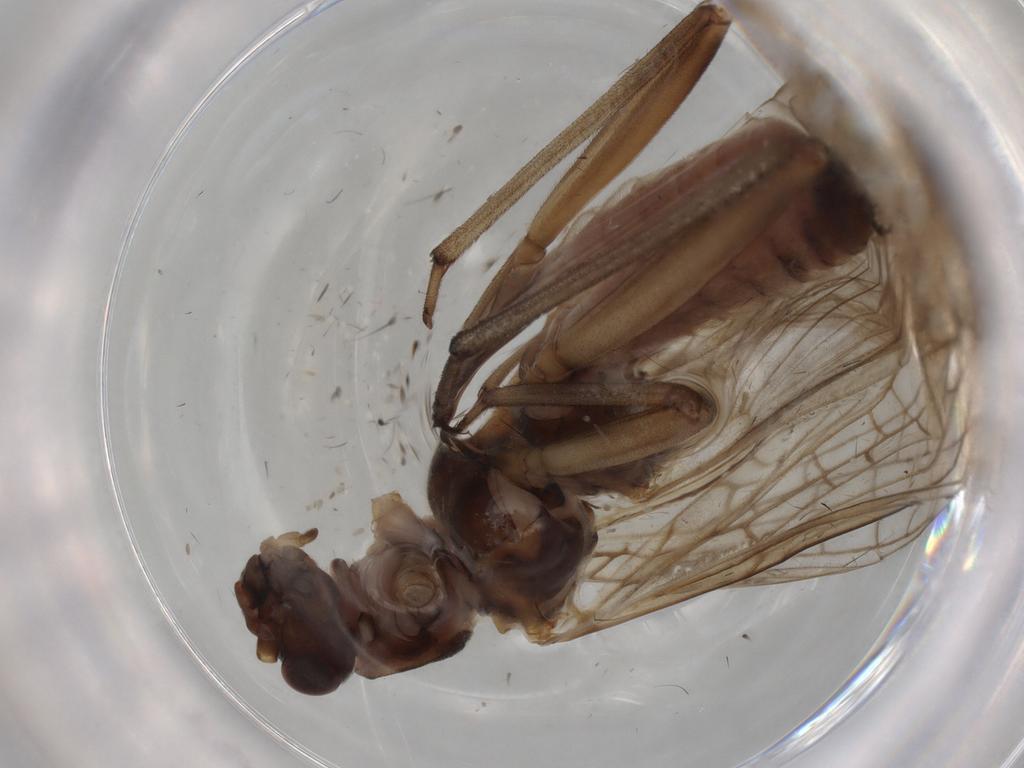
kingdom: Animalia
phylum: Arthropoda
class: Insecta
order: Plecoptera
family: Nemouridae
